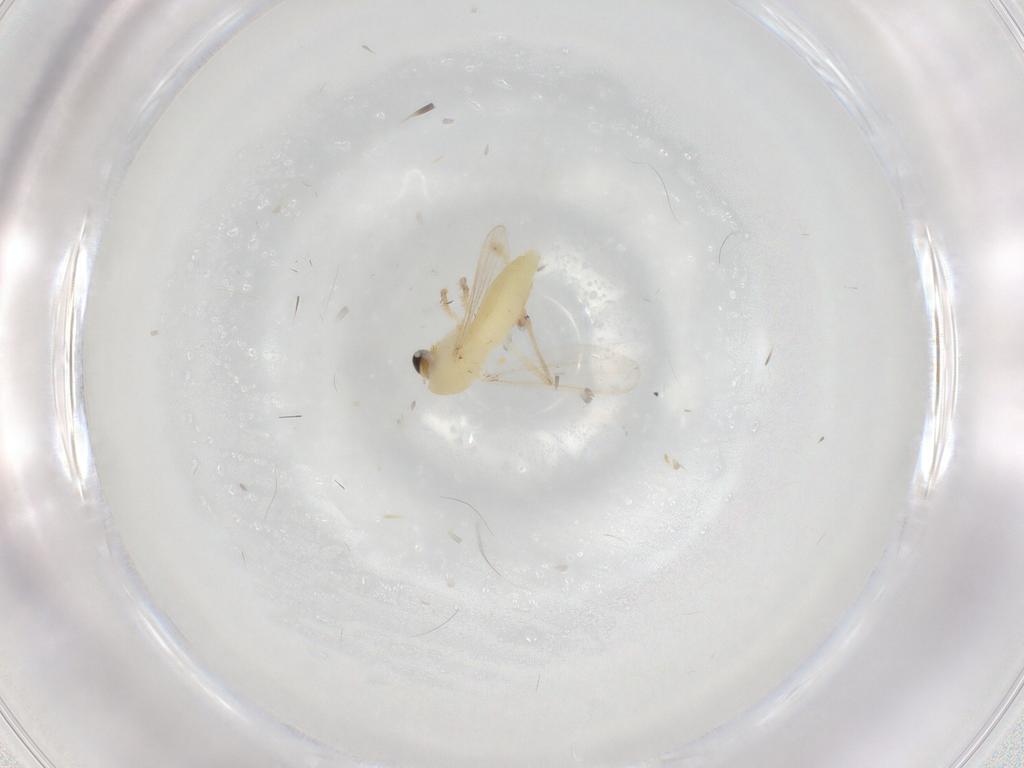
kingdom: Animalia
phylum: Arthropoda
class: Insecta
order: Diptera
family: Chironomidae
